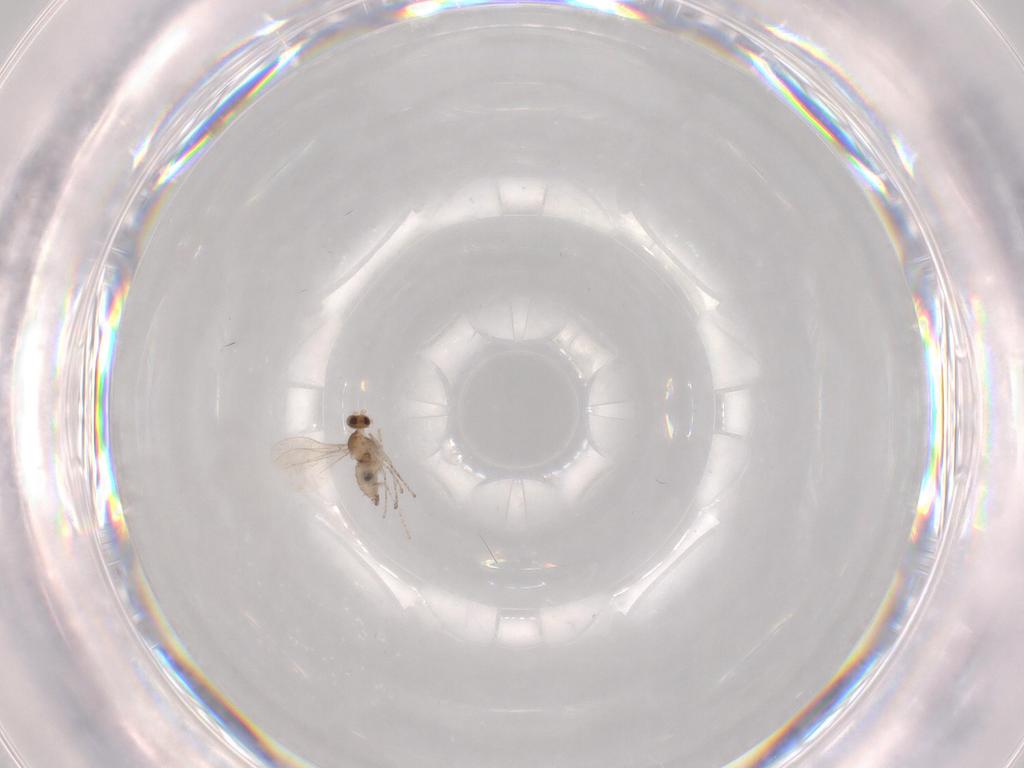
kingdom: Animalia
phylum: Arthropoda
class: Insecta
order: Diptera
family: Cecidomyiidae
